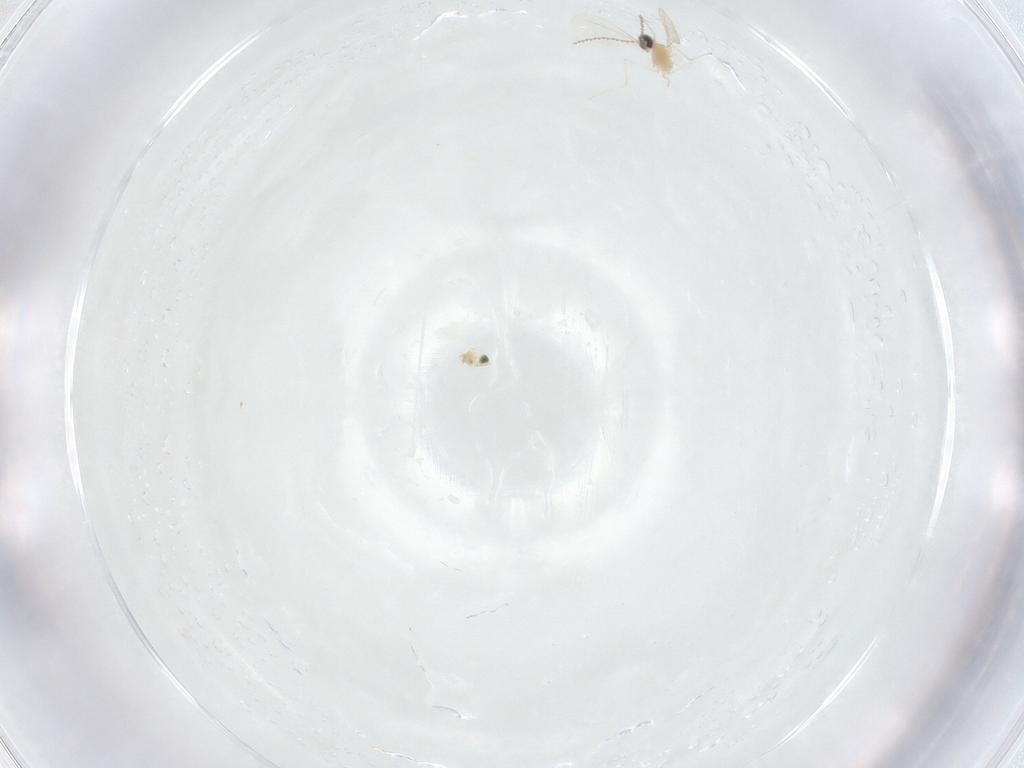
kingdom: Animalia
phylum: Arthropoda
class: Insecta
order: Diptera
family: Cecidomyiidae
